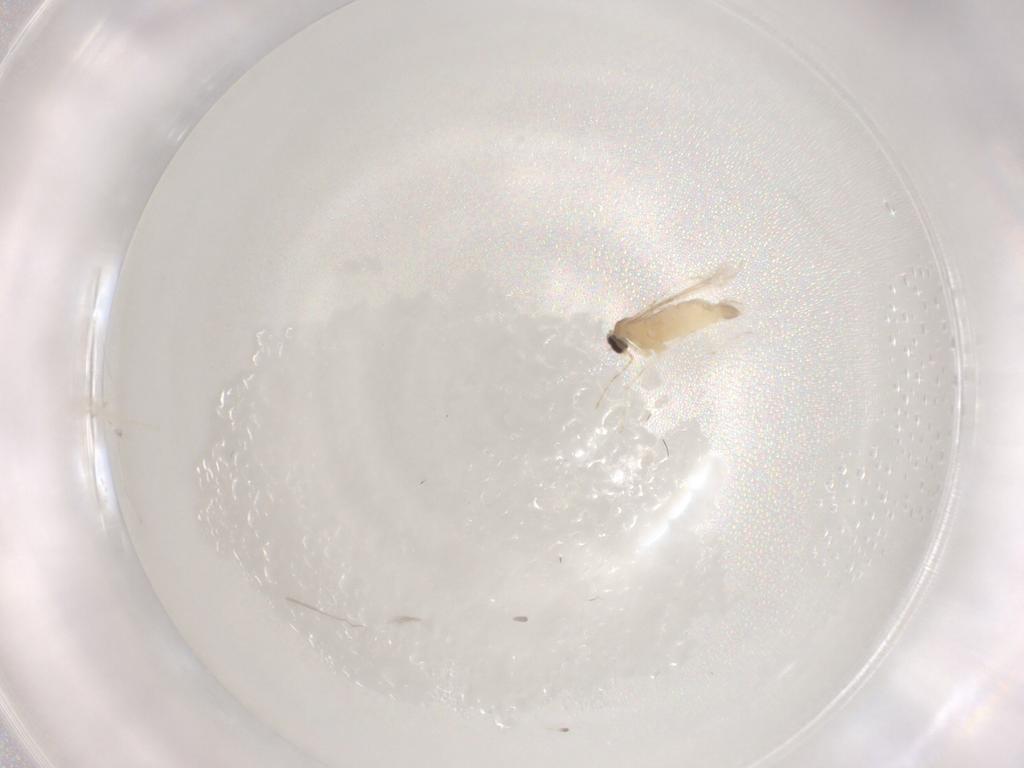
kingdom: Animalia
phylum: Arthropoda
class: Insecta
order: Diptera
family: Cecidomyiidae
